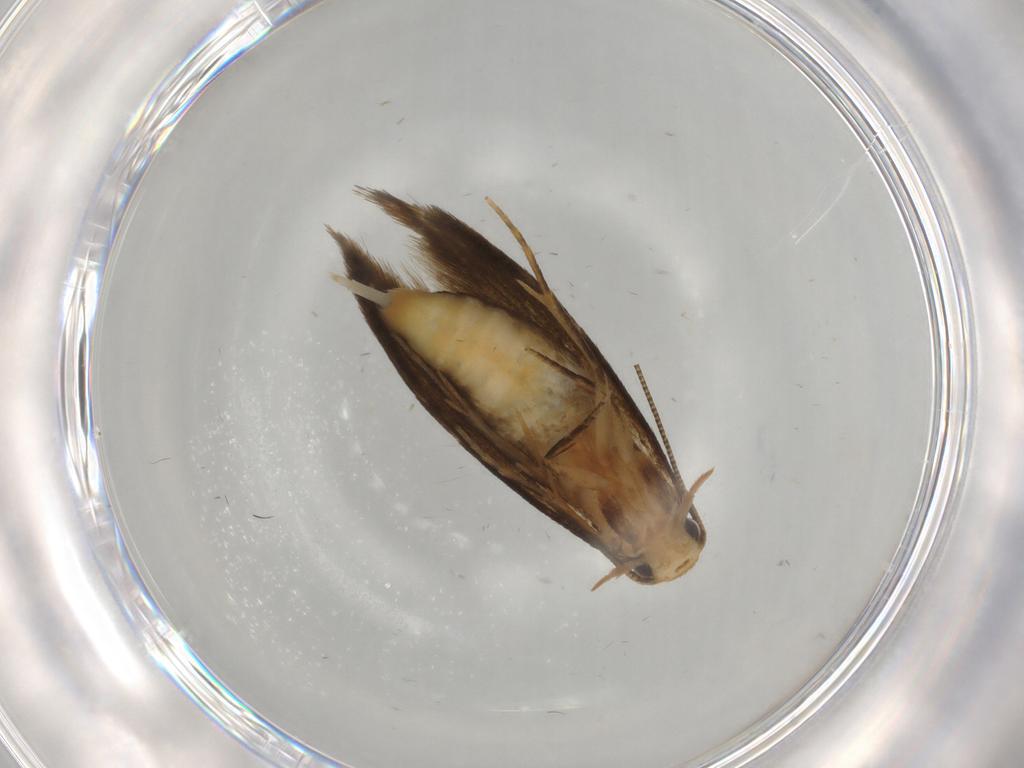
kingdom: Animalia
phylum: Arthropoda
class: Insecta
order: Lepidoptera
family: Tineidae
